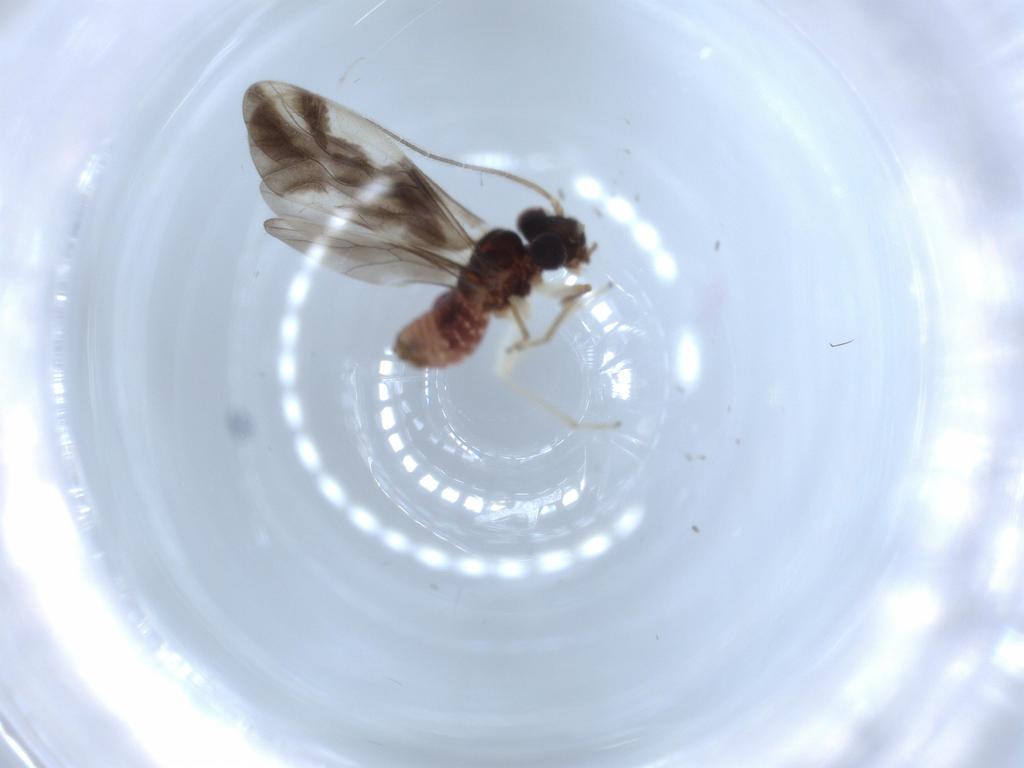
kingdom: Animalia
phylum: Arthropoda
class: Insecta
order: Psocodea
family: Caeciliusidae
